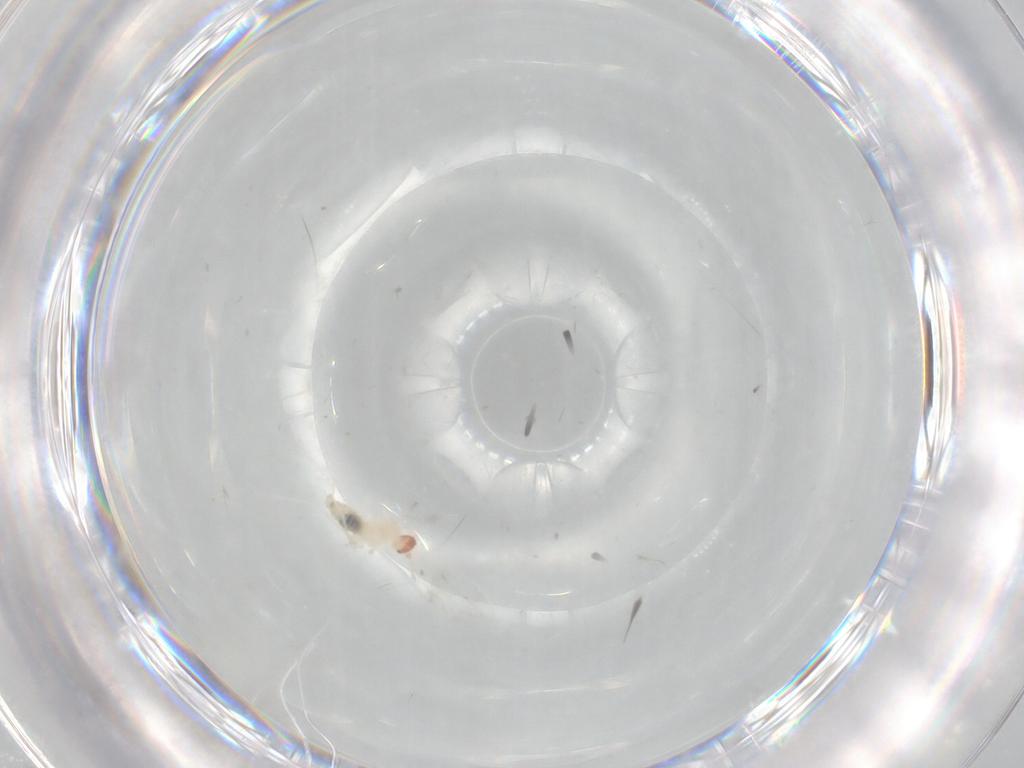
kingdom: Animalia
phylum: Arthropoda
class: Insecta
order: Diptera
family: Cecidomyiidae
